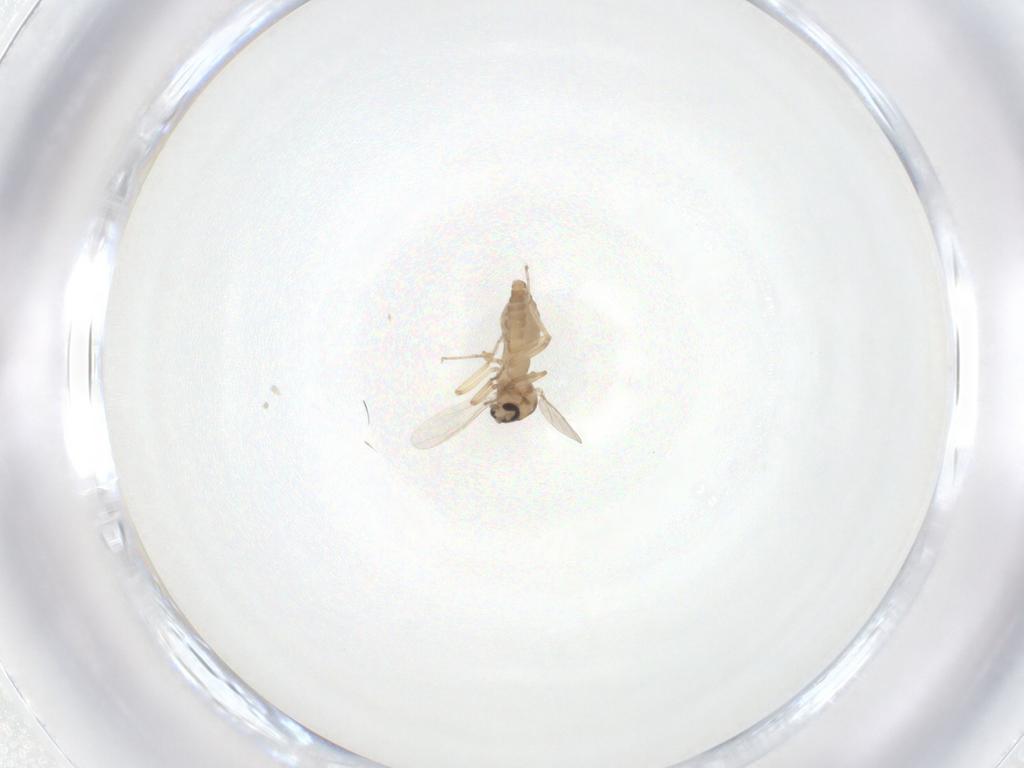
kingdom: Animalia
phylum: Arthropoda
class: Insecta
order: Diptera
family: Ceratopogonidae
